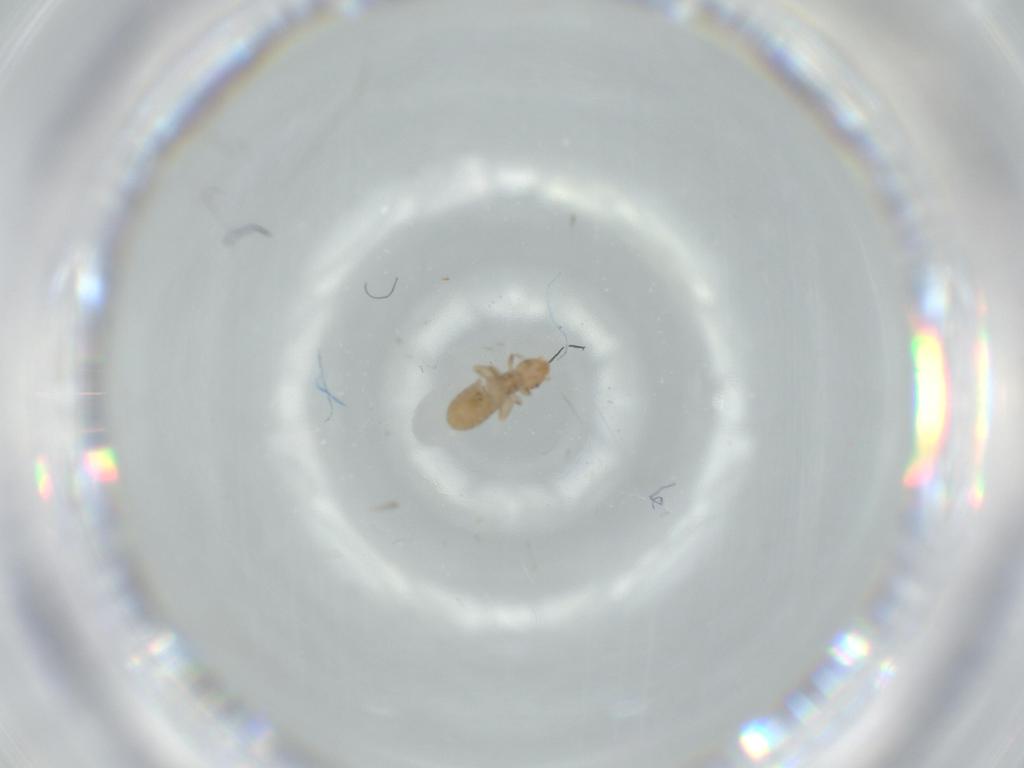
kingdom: Animalia
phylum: Arthropoda
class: Insecta
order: Psocodea
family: Liposcelididae
